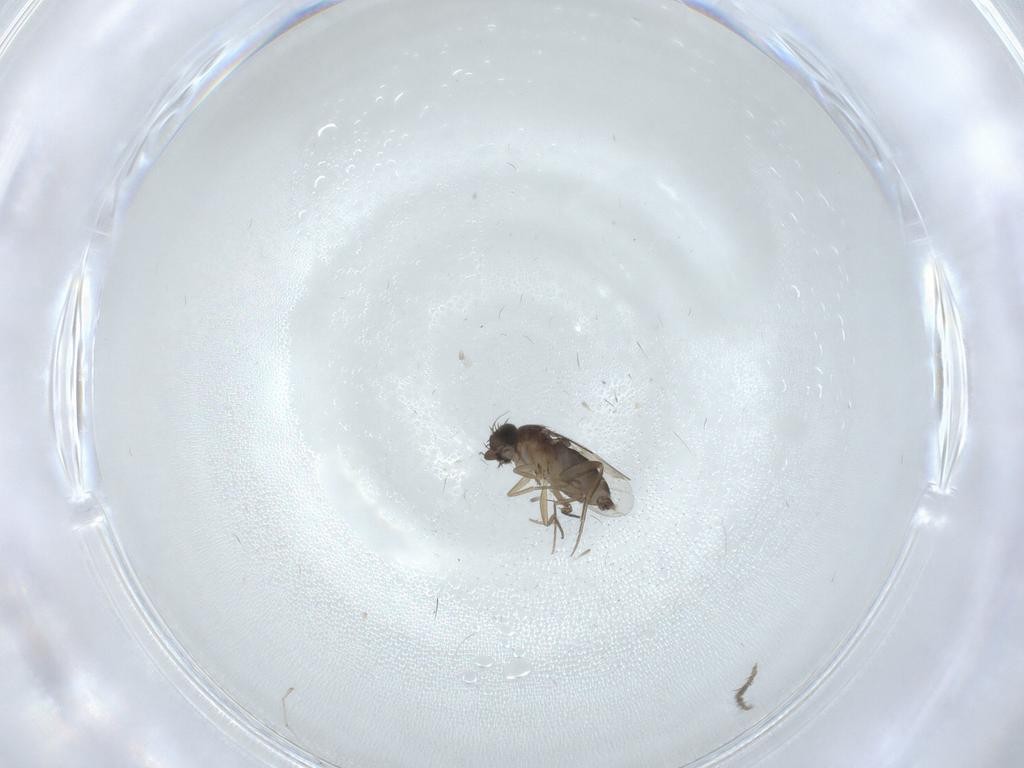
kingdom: Animalia
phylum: Arthropoda
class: Insecta
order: Diptera
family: Chironomidae
